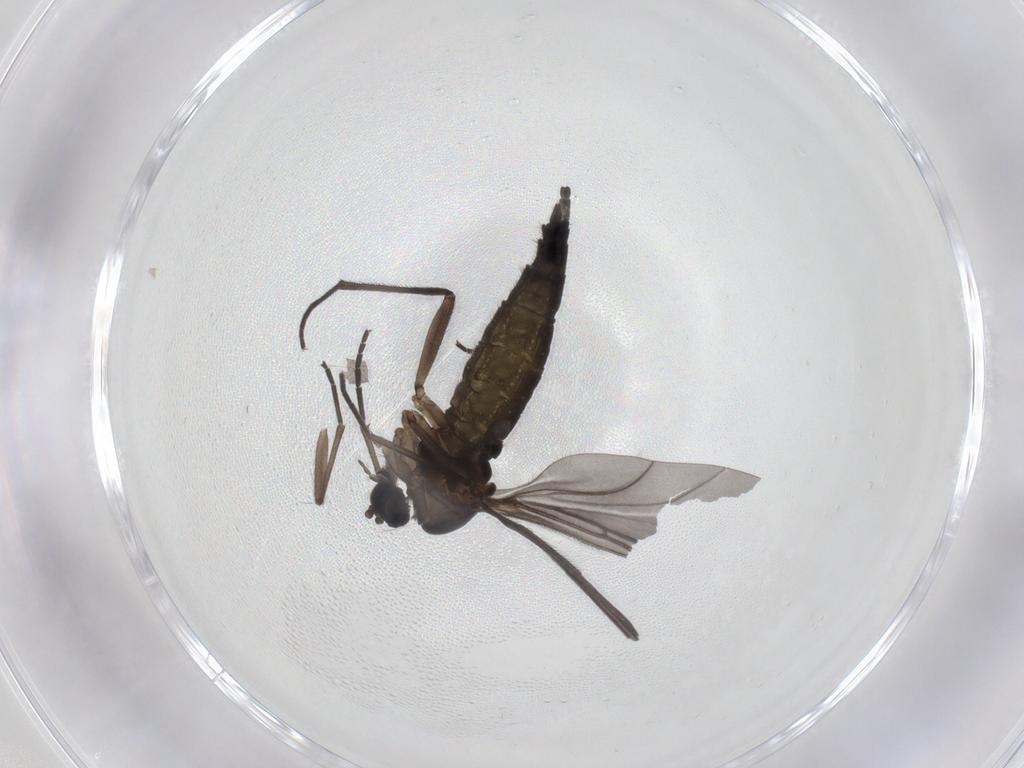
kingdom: Animalia
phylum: Arthropoda
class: Insecta
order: Diptera
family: Sciaridae
